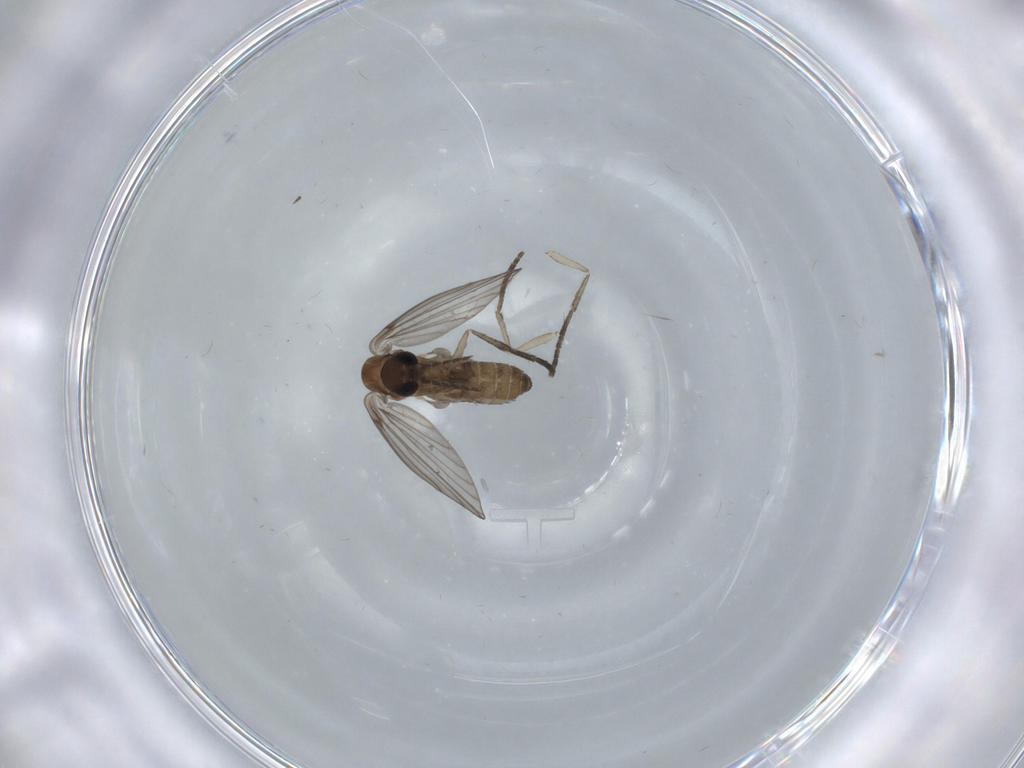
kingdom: Animalia
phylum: Arthropoda
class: Insecta
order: Diptera
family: Psychodidae
